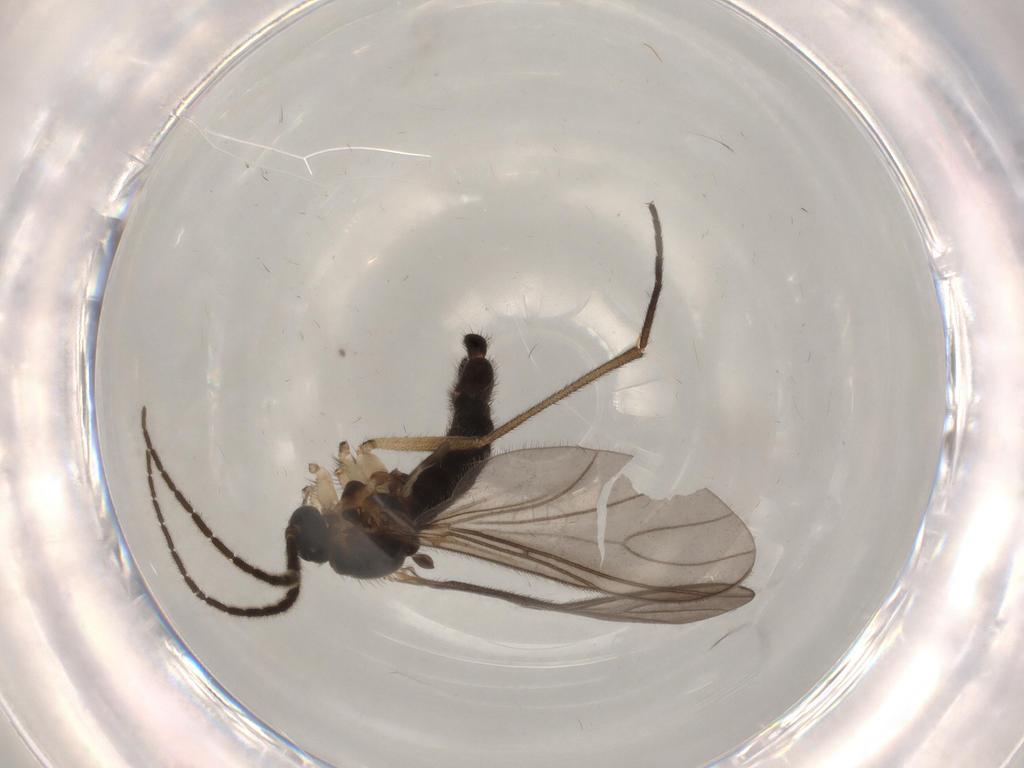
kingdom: Animalia
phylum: Arthropoda
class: Insecta
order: Diptera
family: Sciaridae
